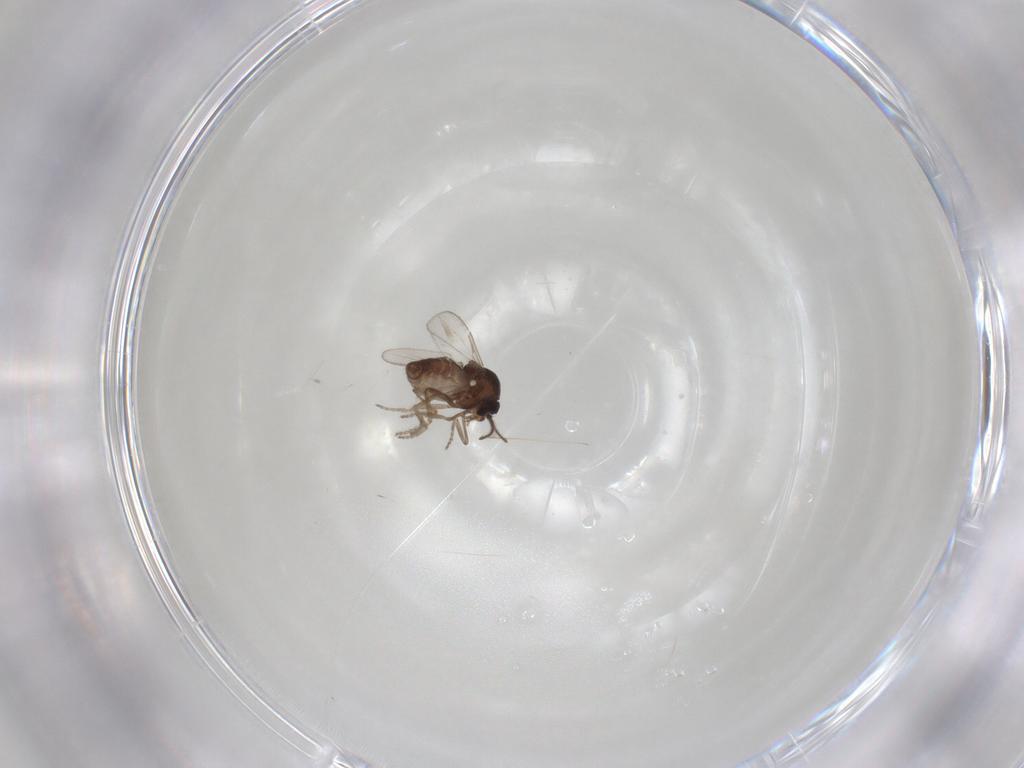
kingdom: Animalia
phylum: Arthropoda
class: Insecta
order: Diptera
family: Ceratopogonidae
